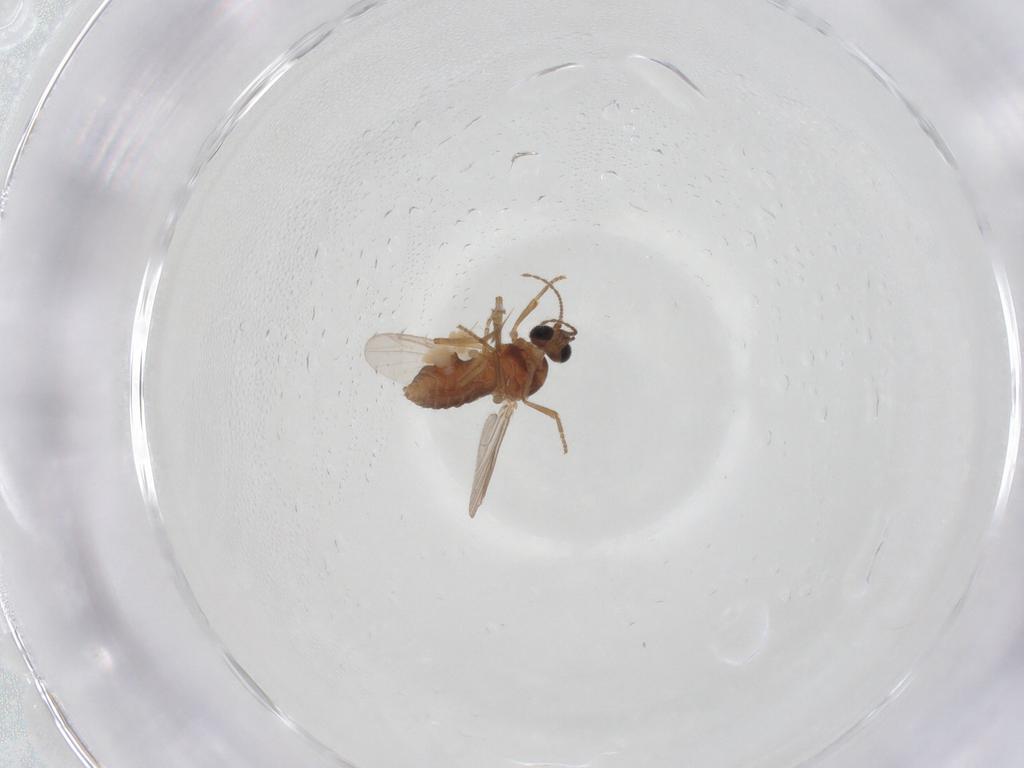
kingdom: Animalia
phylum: Arthropoda
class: Insecta
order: Diptera
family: Ceratopogonidae
